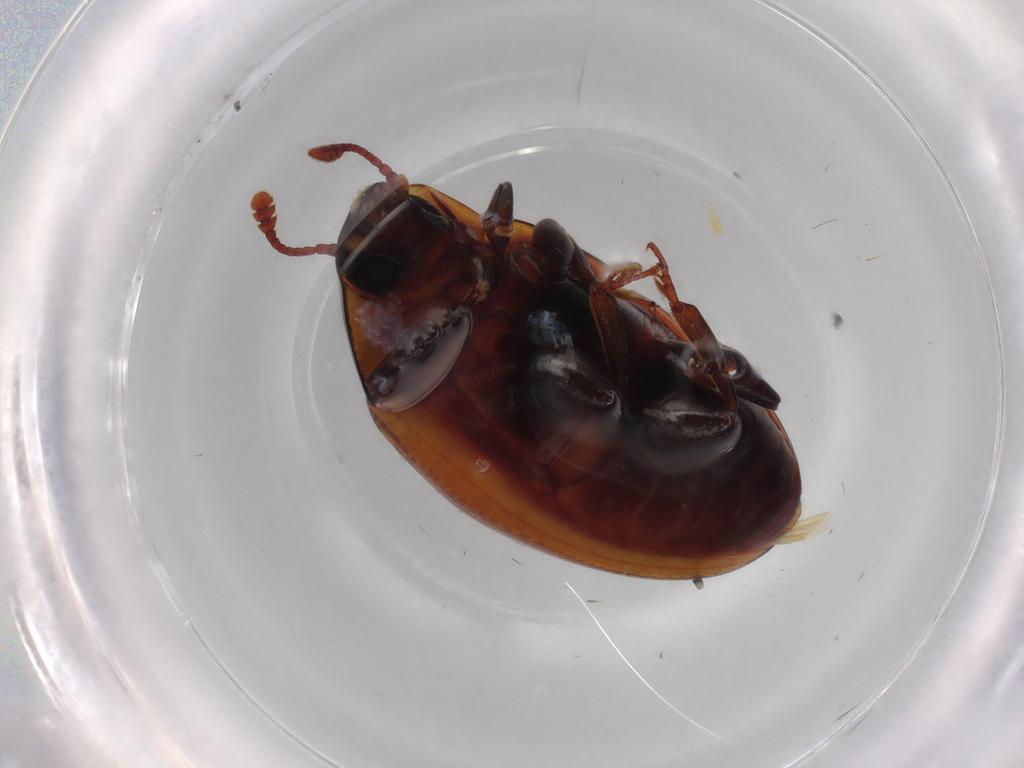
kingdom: Animalia
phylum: Arthropoda
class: Insecta
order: Coleoptera
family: Zopheridae
